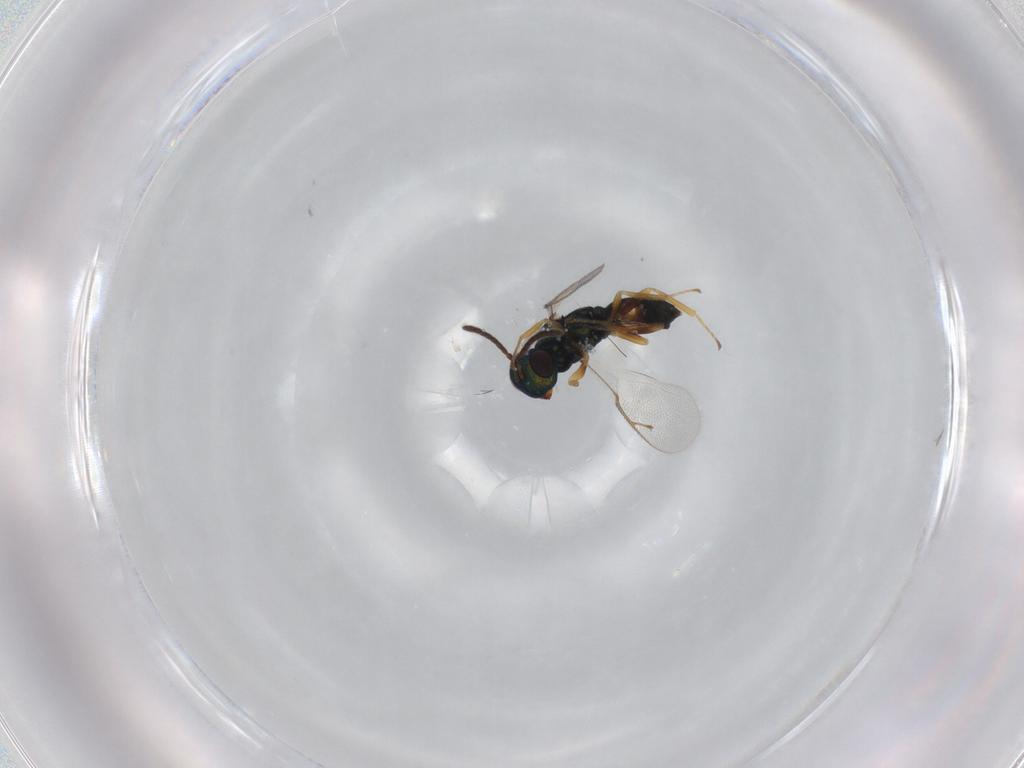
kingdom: Animalia
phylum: Arthropoda
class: Insecta
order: Hymenoptera
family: Pteromalidae
